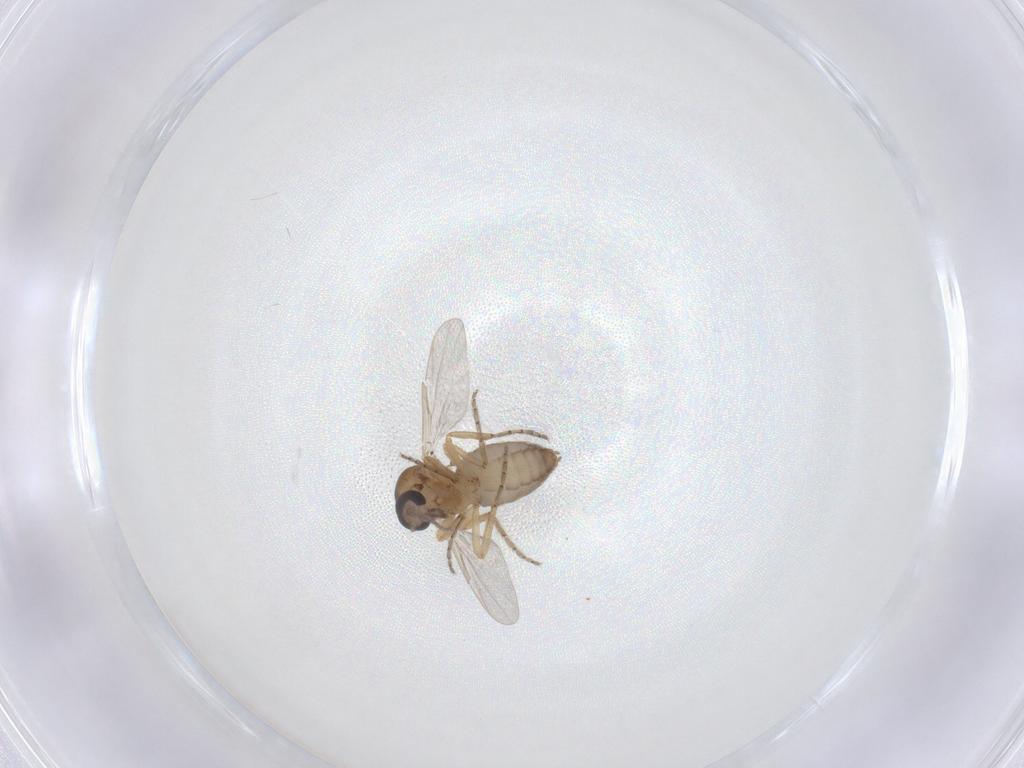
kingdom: Animalia
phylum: Arthropoda
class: Insecta
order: Diptera
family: Ceratopogonidae
